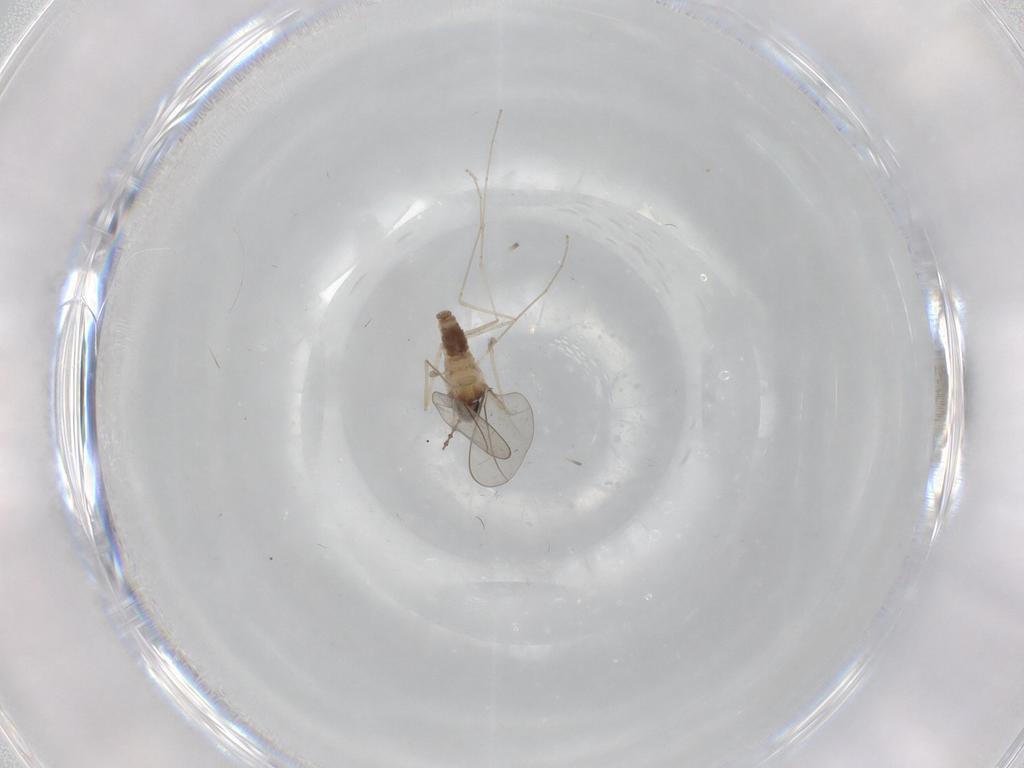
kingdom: Animalia
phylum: Arthropoda
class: Insecta
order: Diptera
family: Cecidomyiidae
